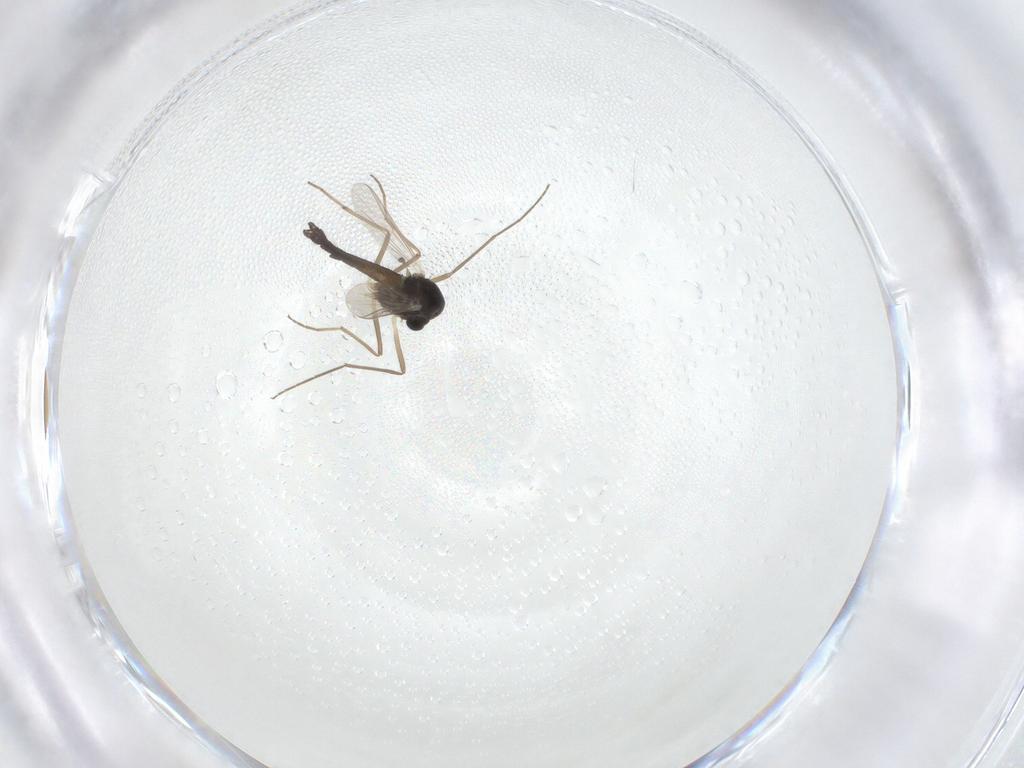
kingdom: Animalia
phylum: Arthropoda
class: Insecta
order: Diptera
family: Chironomidae
